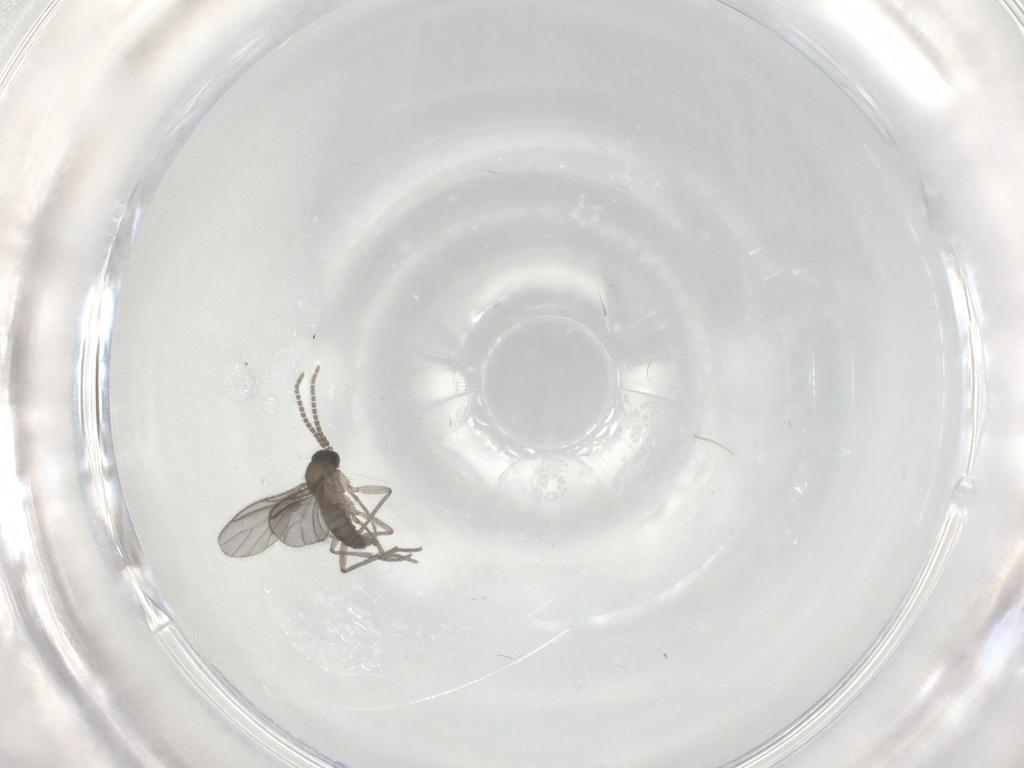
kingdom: Animalia
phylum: Arthropoda
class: Insecta
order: Diptera
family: Sciaridae
